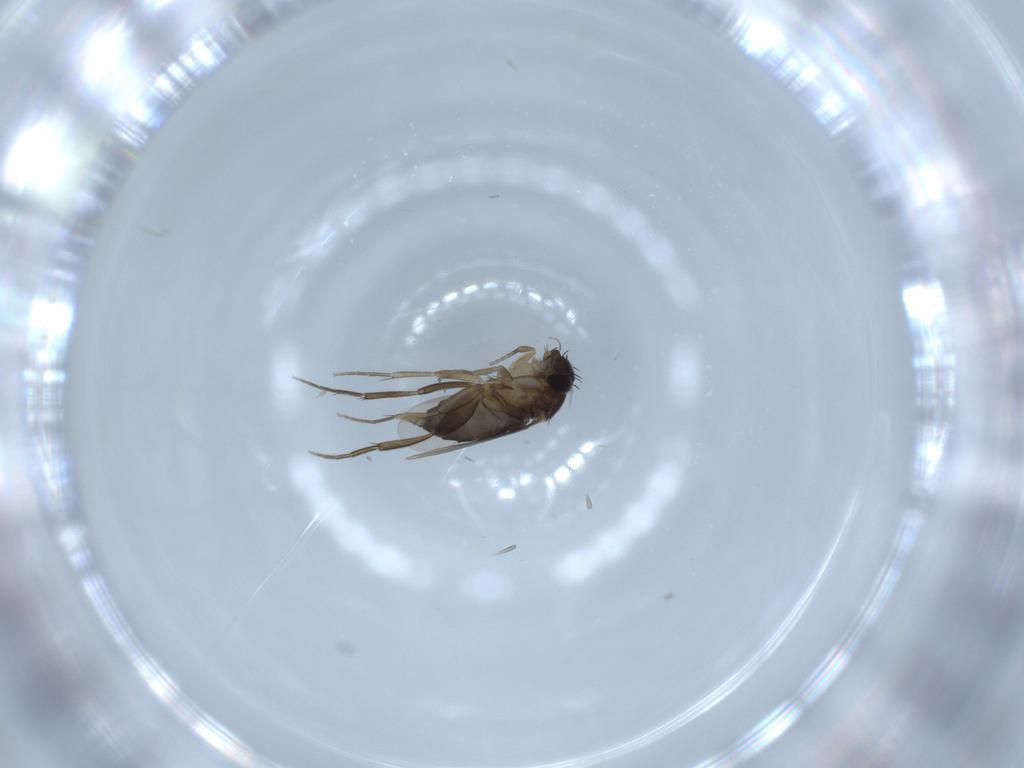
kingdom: Animalia
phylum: Arthropoda
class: Insecta
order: Diptera
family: Phoridae
